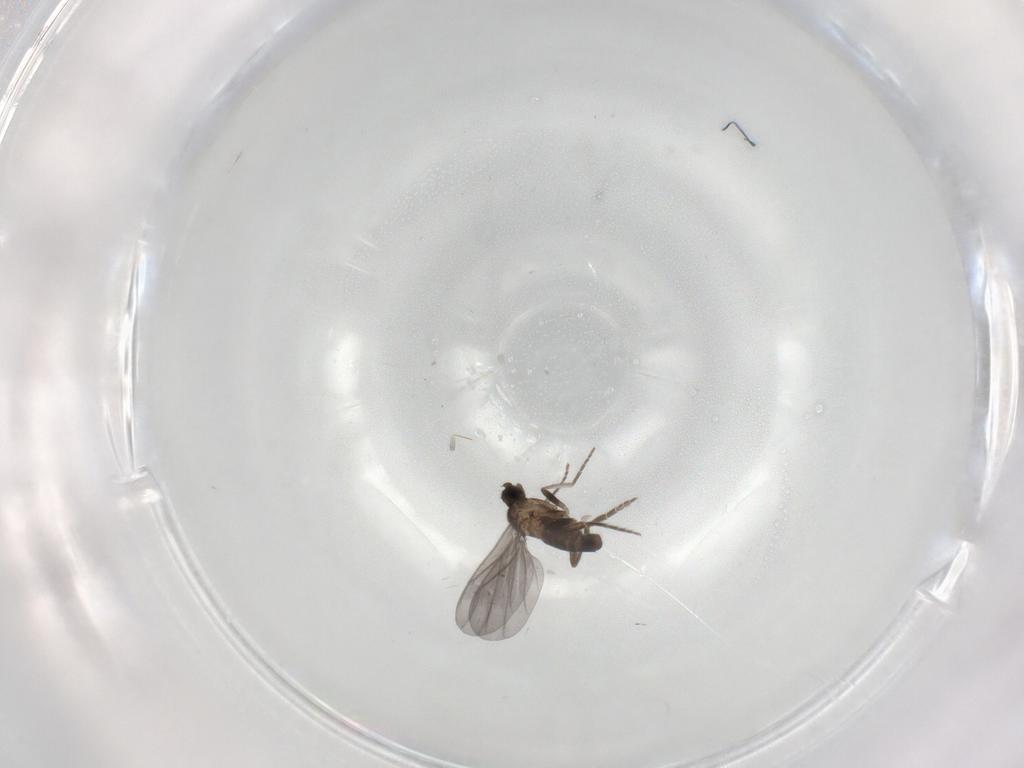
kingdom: Animalia
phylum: Arthropoda
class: Insecta
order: Diptera
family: Phoridae
